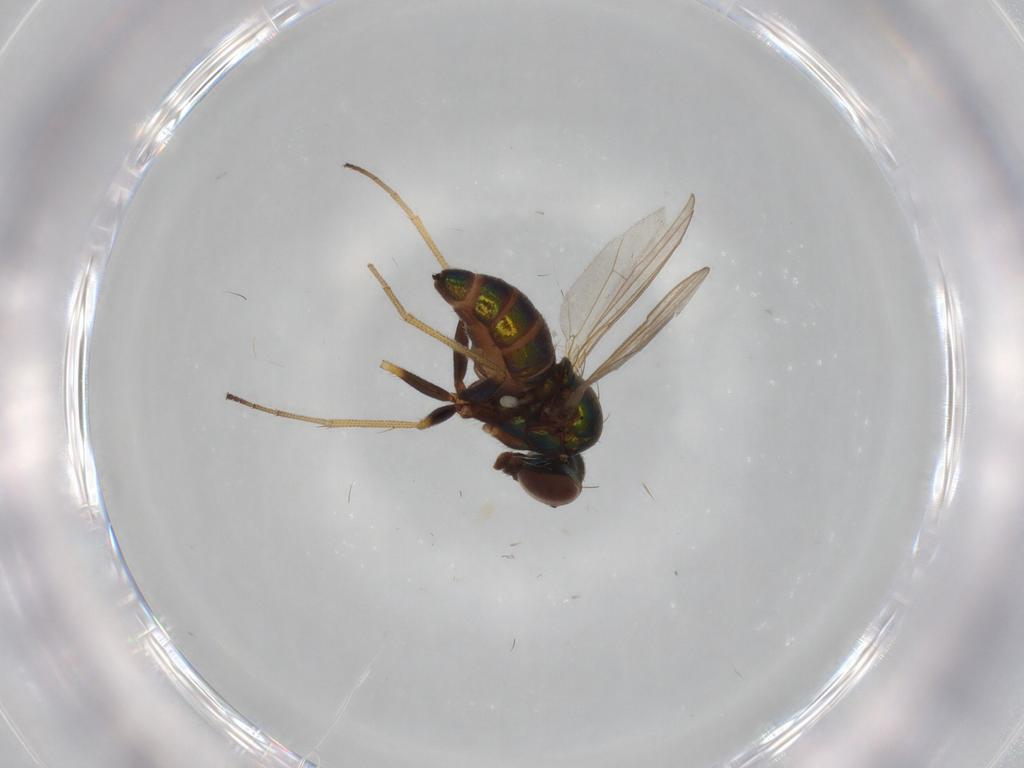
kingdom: Animalia
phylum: Arthropoda
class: Insecta
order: Diptera
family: Dolichopodidae
